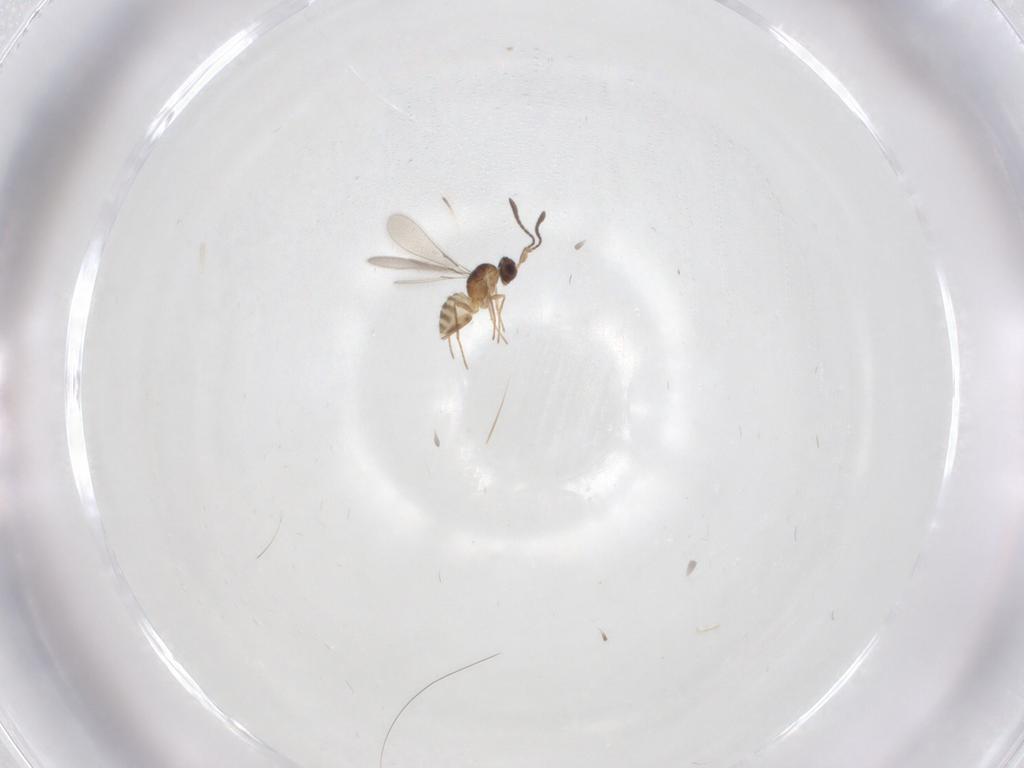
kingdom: Animalia
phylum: Arthropoda
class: Insecta
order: Hymenoptera
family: Mymaridae
